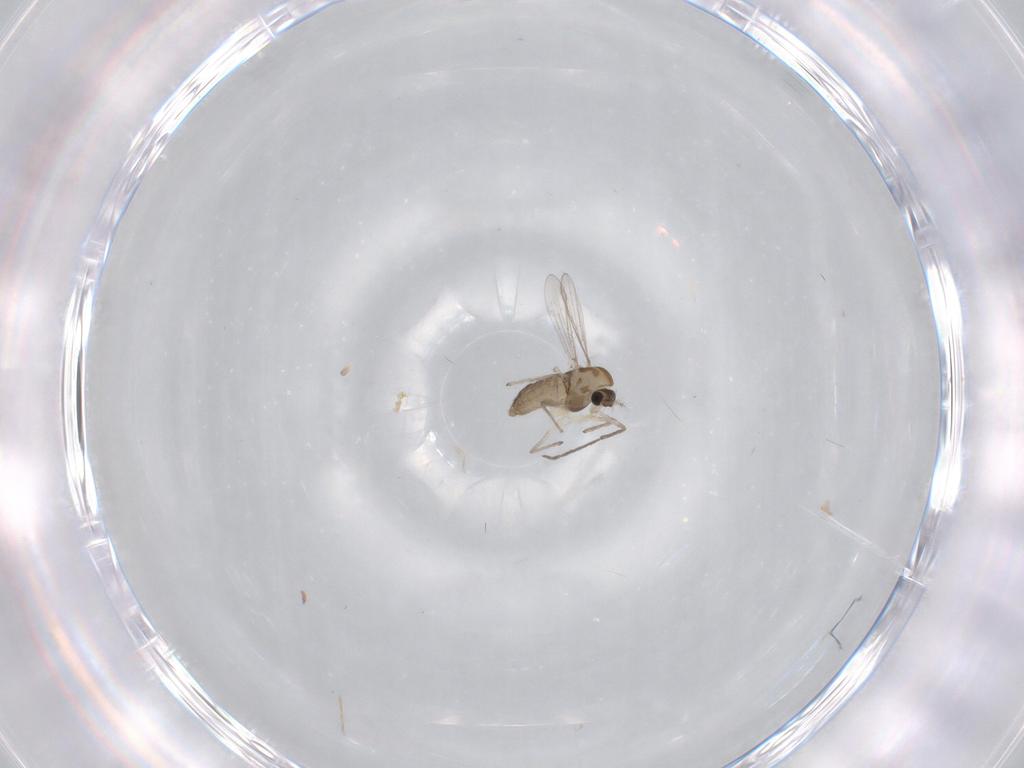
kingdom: Animalia
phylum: Arthropoda
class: Insecta
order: Diptera
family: Chironomidae
